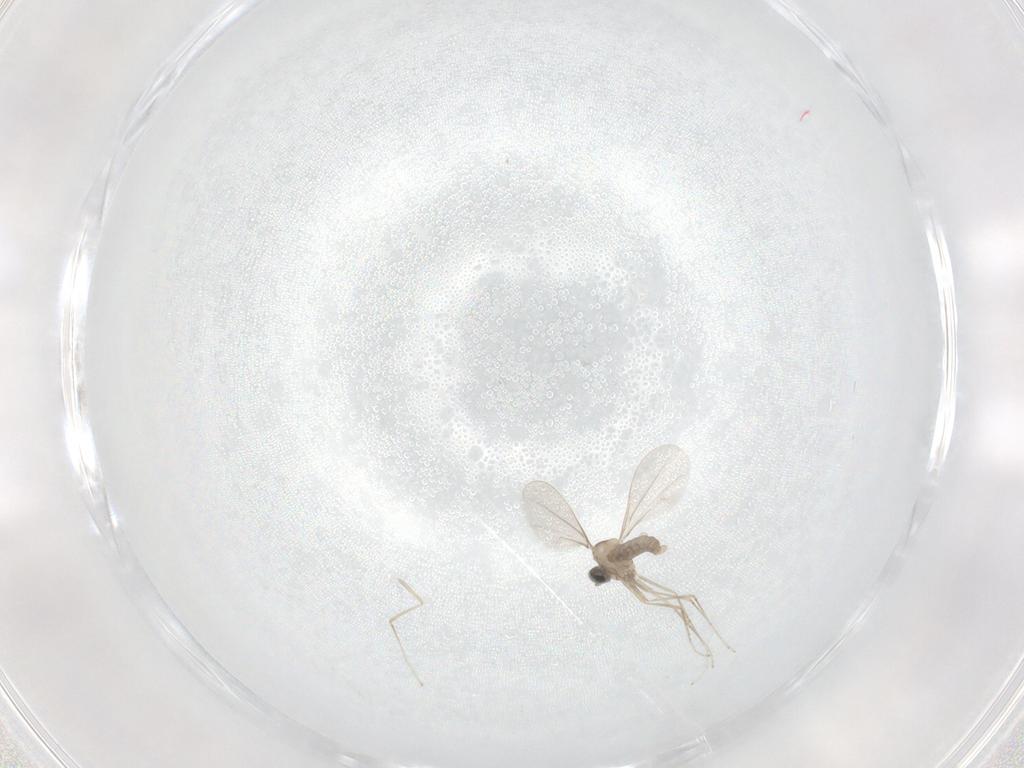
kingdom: Animalia
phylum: Arthropoda
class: Insecta
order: Diptera
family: Cecidomyiidae
